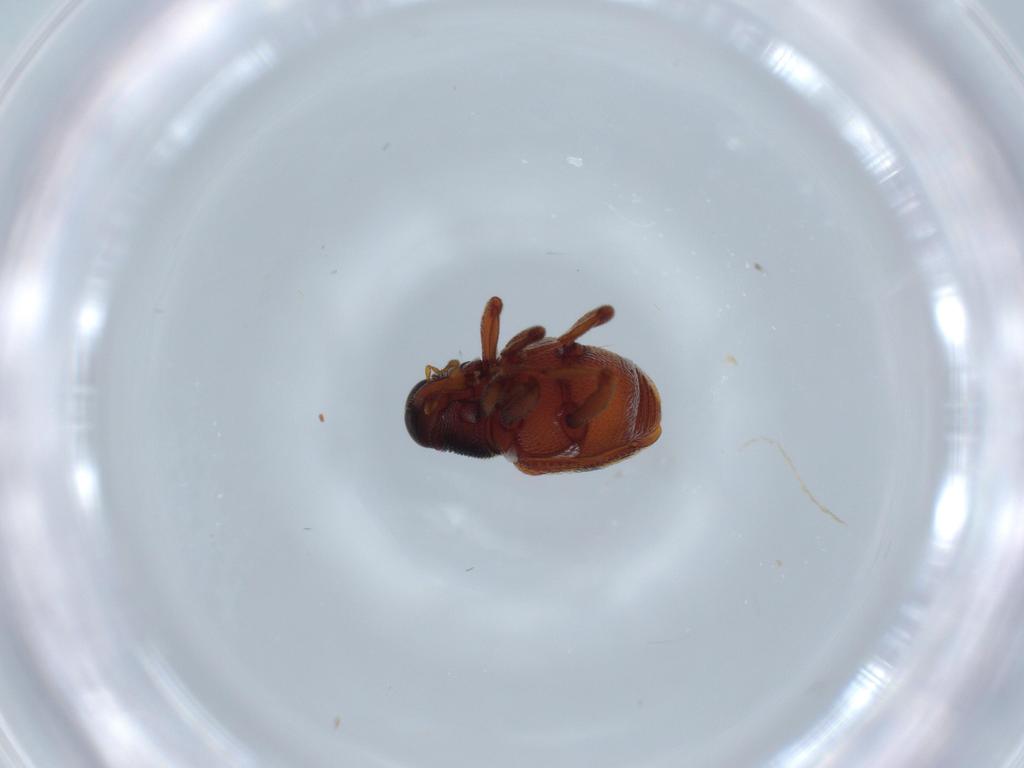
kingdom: Animalia
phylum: Arthropoda
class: Insecta
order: Coleoptera
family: Curculionidae
